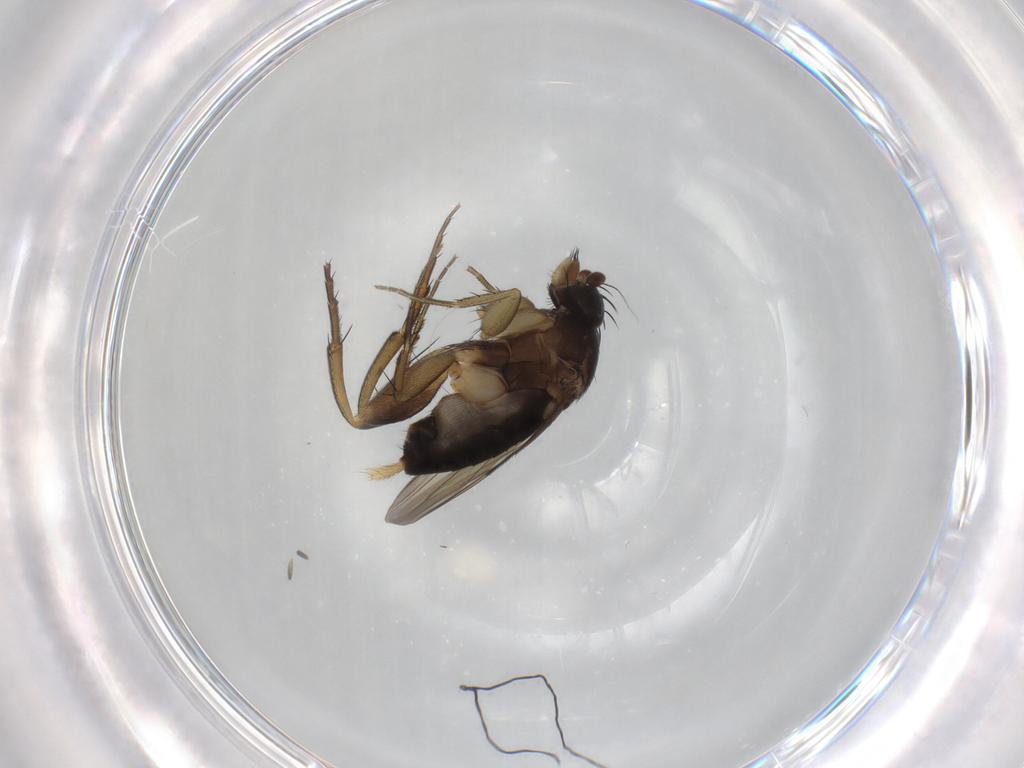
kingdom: Animalia
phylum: Arthropoda
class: Insecta
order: Diptera
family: Phoridae
